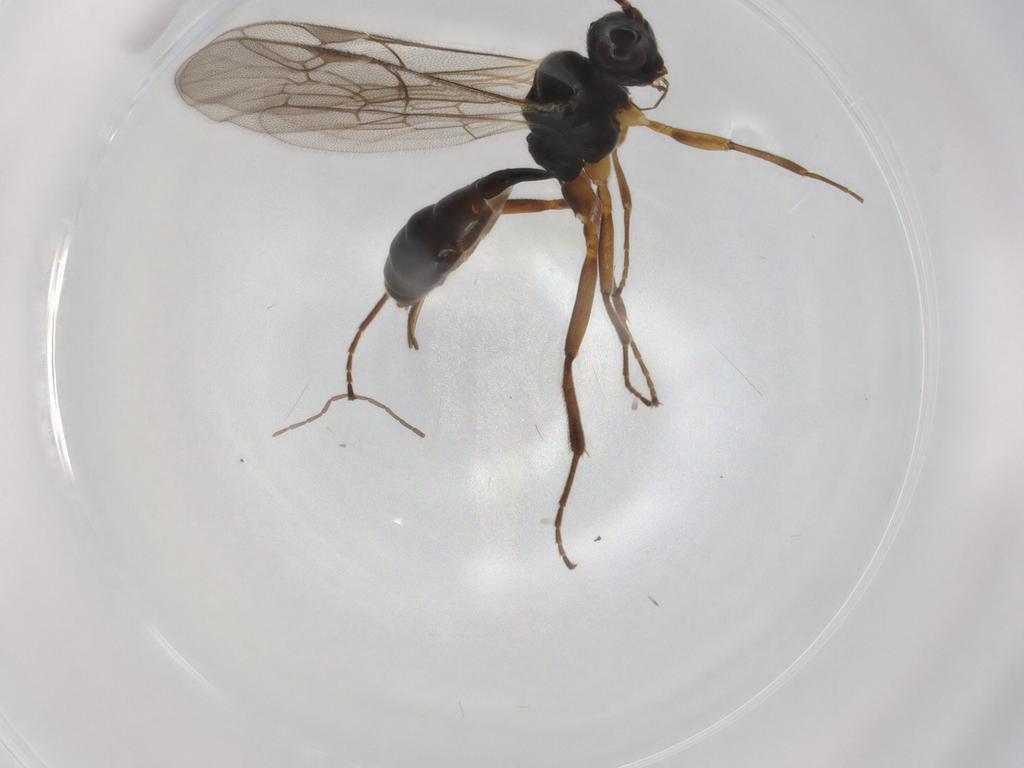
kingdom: Animalia
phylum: Arthropoda
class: Insecta
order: Hymenoptera
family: Ichneumonidae
